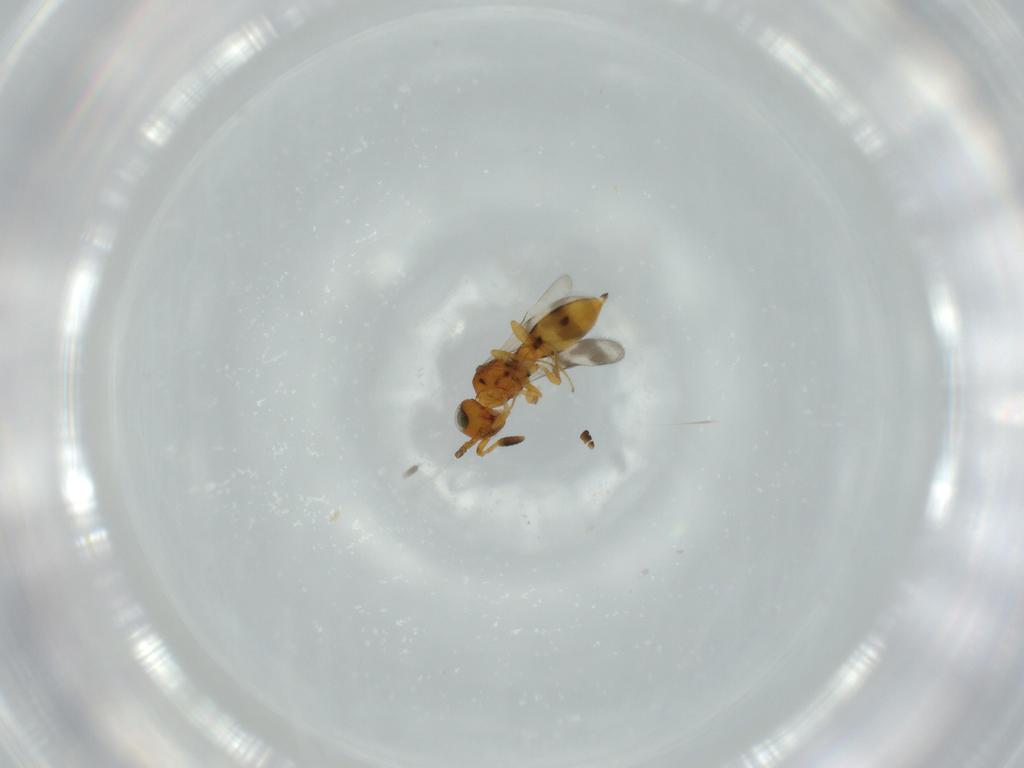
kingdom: Animalia
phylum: Arthropoda
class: Insecta
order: Hymenoptera
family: Scelionidae
